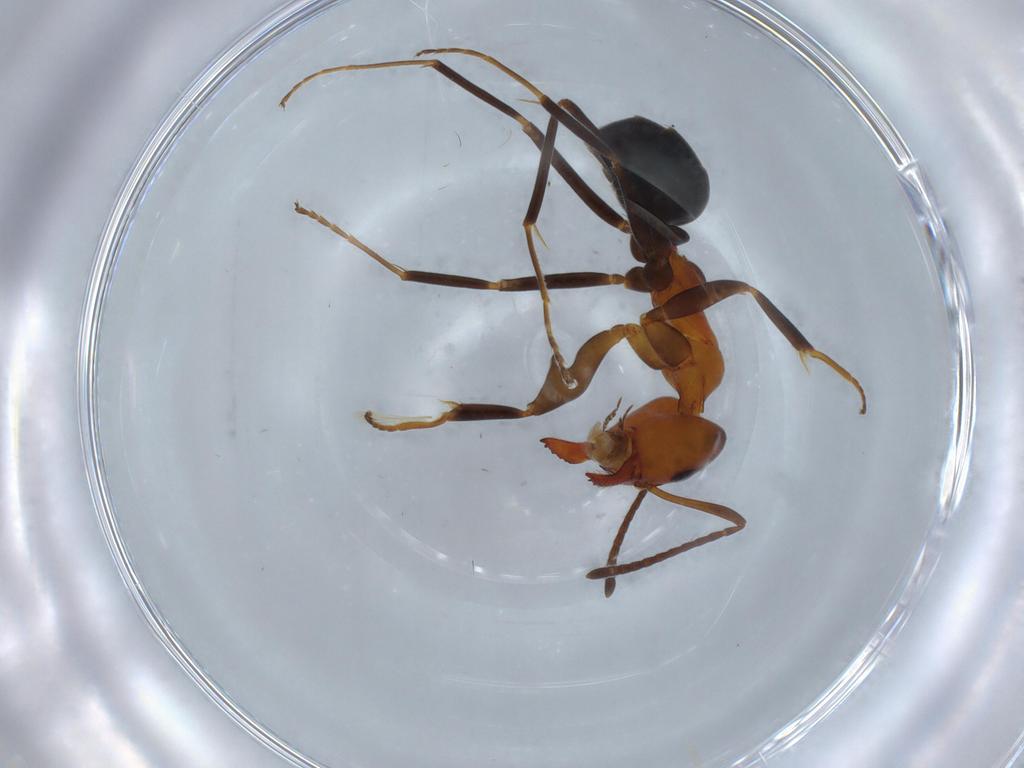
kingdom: Animalia
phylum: Arthropoda
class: Insecta
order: Hymenoptera
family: Formicidae
